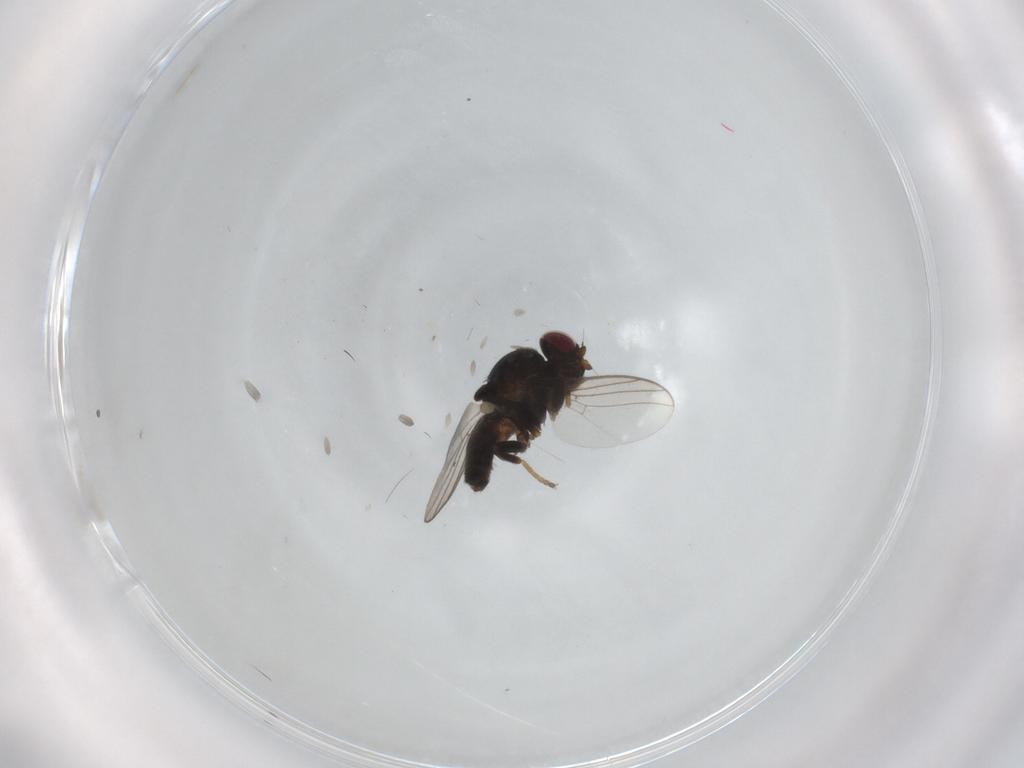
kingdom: Animalia
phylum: Arthropoda
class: Insecta
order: Diptera
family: Chloropidae
